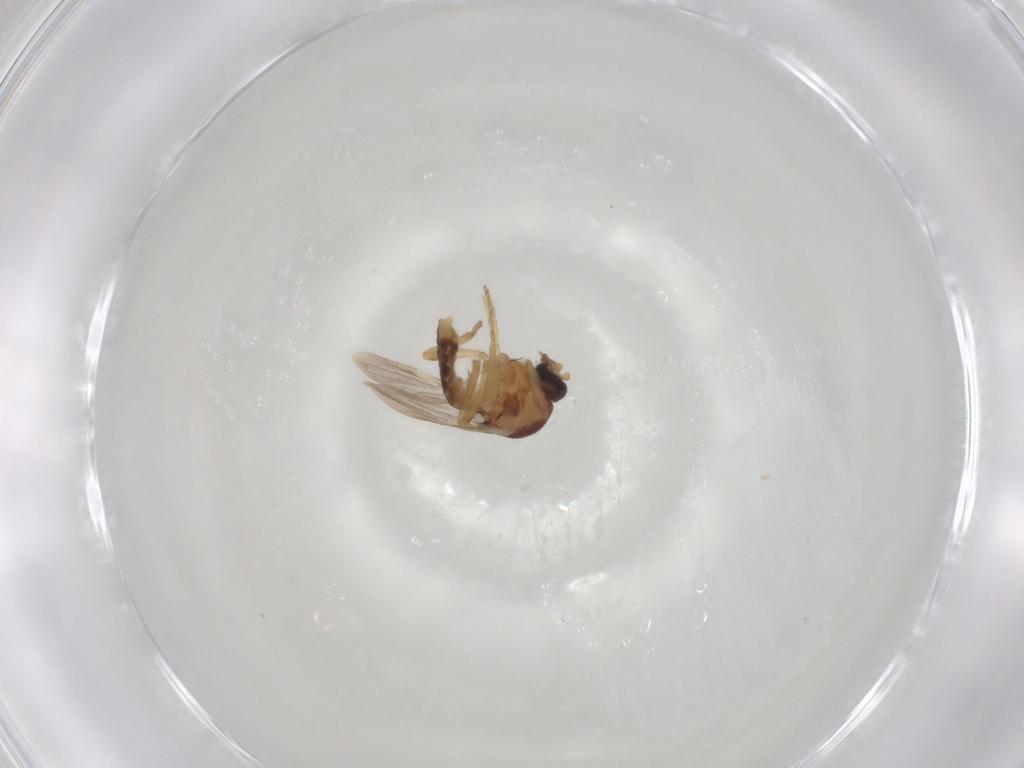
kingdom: Animalia
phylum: Arthropoda
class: Insecta
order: Diptera
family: Ceratopogonidae
